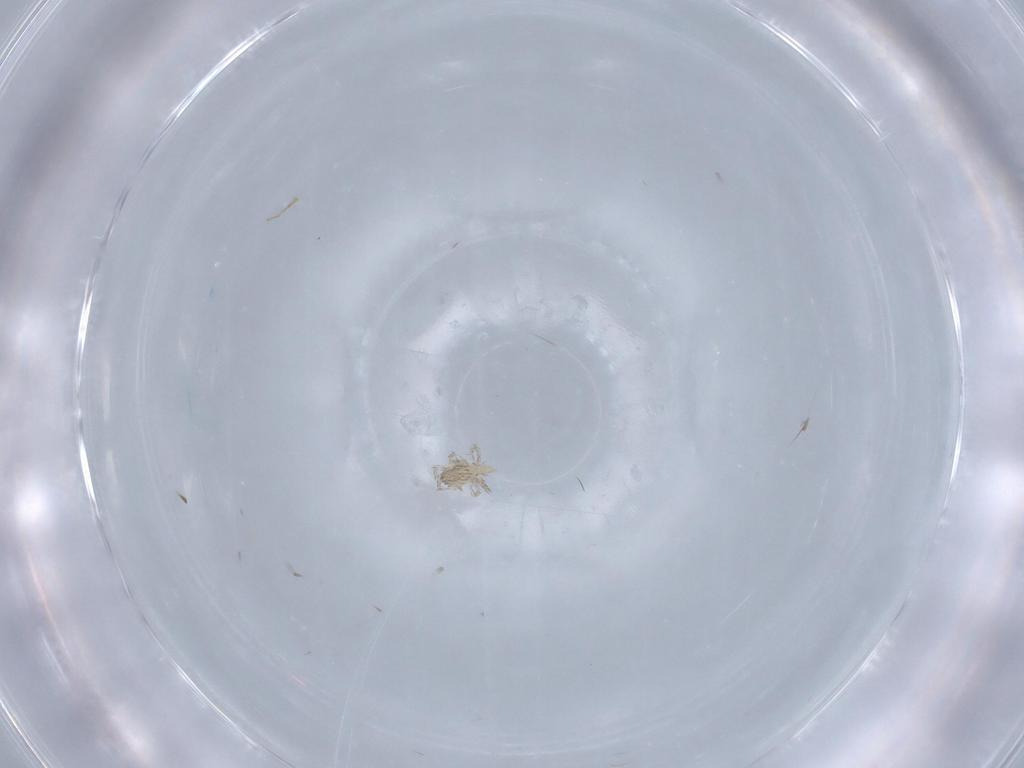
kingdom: Animalia
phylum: Arthropoda
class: Arachnida
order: Trombidiformes
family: Erythraeidae
